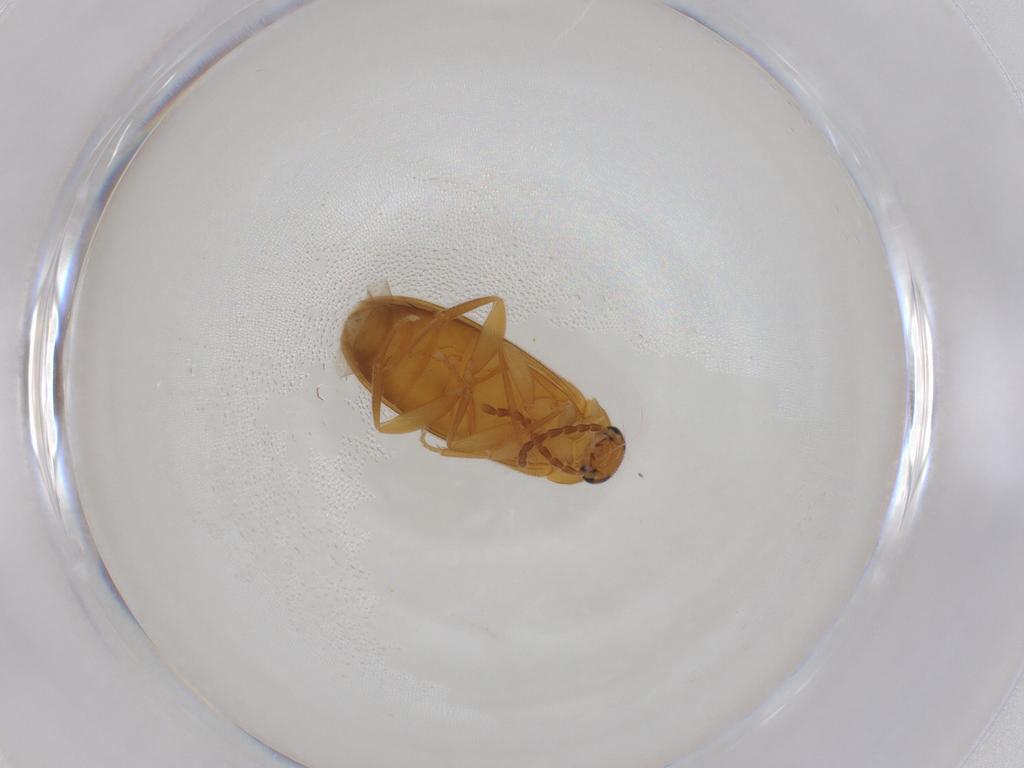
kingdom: Animalia
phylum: Arthropoda
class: Insecta
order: Coleoptera
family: Scraptiidae
